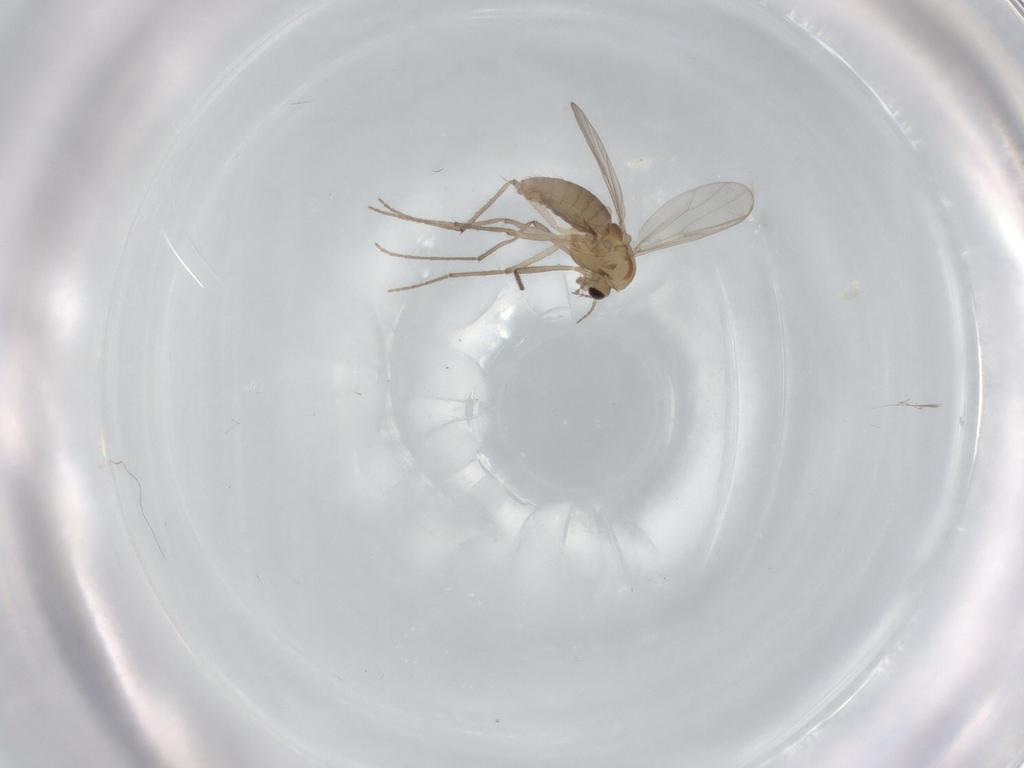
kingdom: Animalia
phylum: Arthropoda
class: Insecta
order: Diptera
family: Chironomidae
